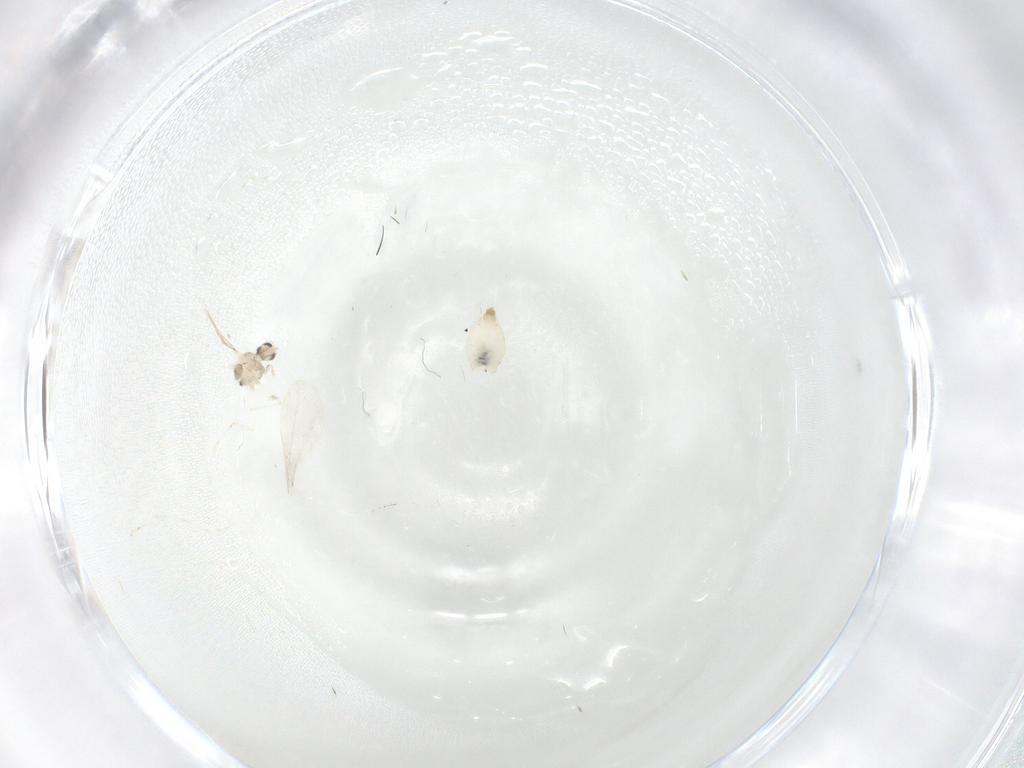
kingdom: Animalia
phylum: Arthropoda
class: Insecta
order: Diptera
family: Cecidomyiidae
